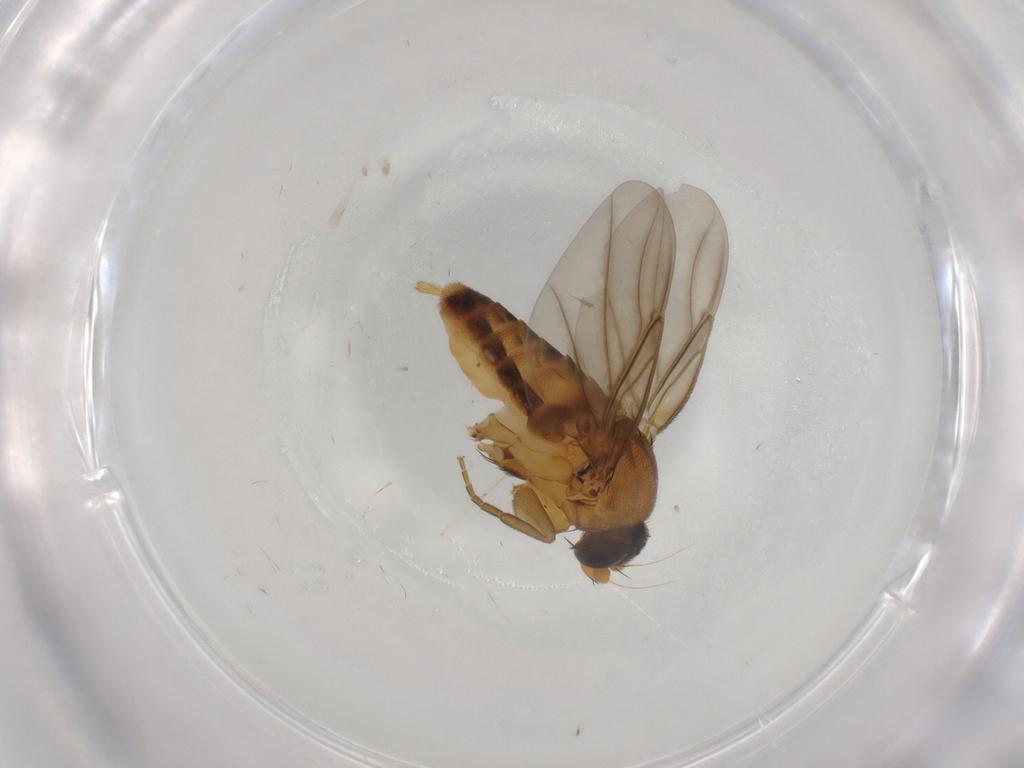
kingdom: Animalia
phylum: Arthropoda
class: Insecta
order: Diptera
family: Phoridae
